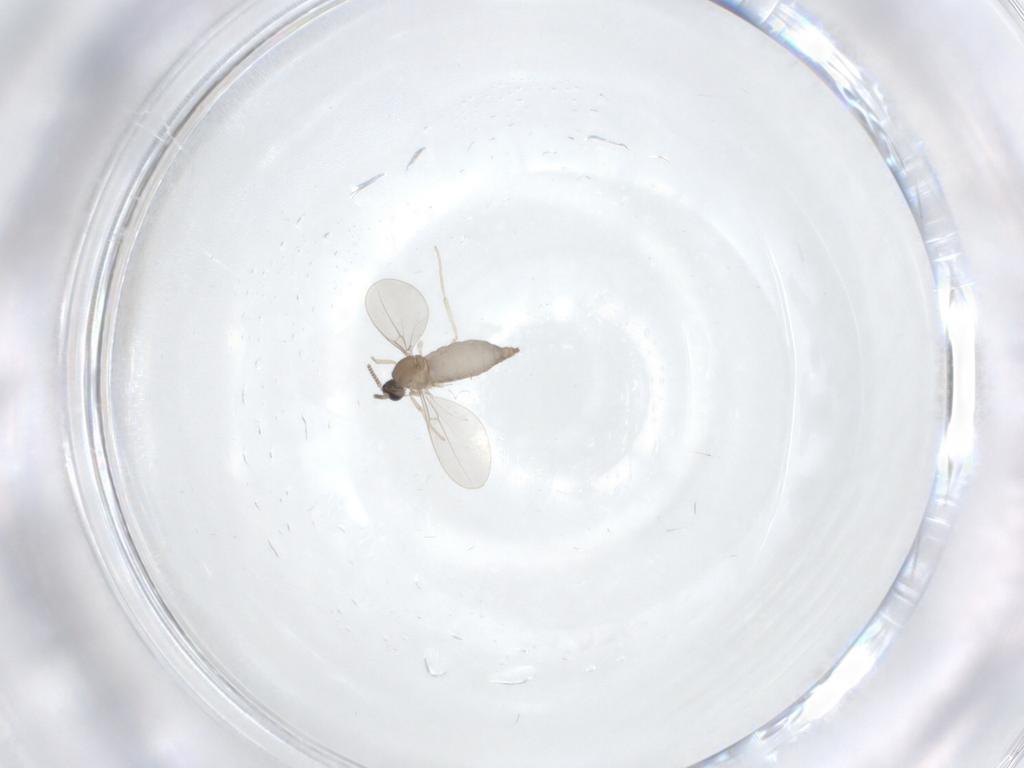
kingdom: Animalia
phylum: Arthropoda
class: Insecta
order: Diptera
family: Cecidomyiidae
